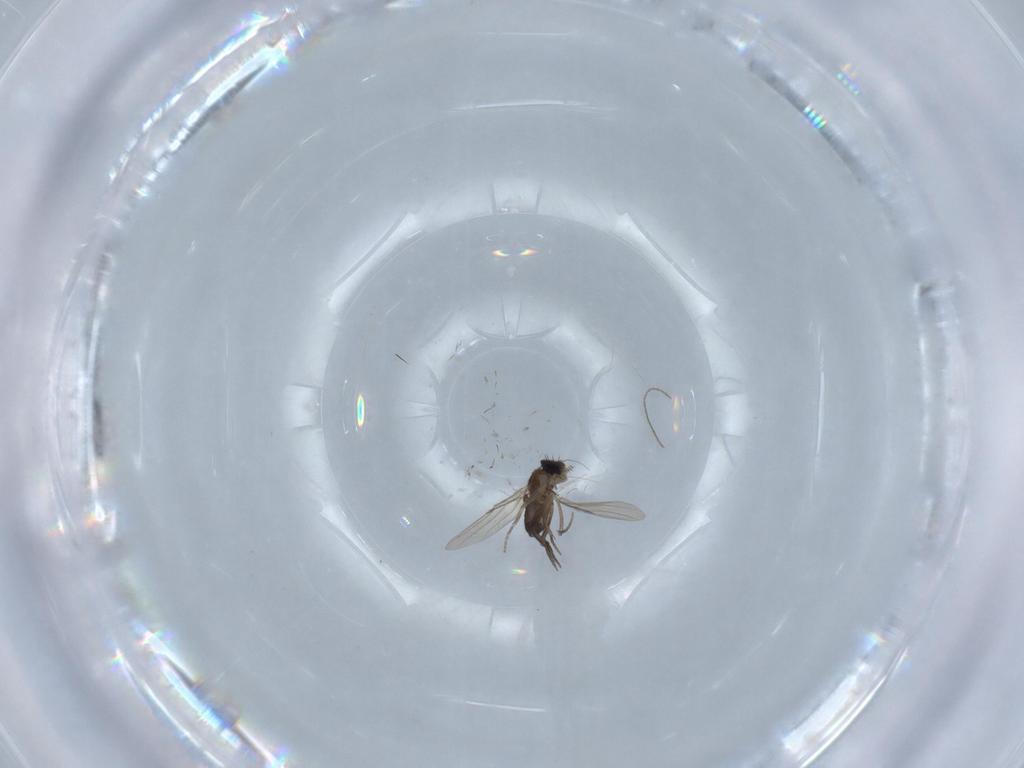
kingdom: Animalia
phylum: Arthropoda
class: Insecta
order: Diptera
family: Phoridae
